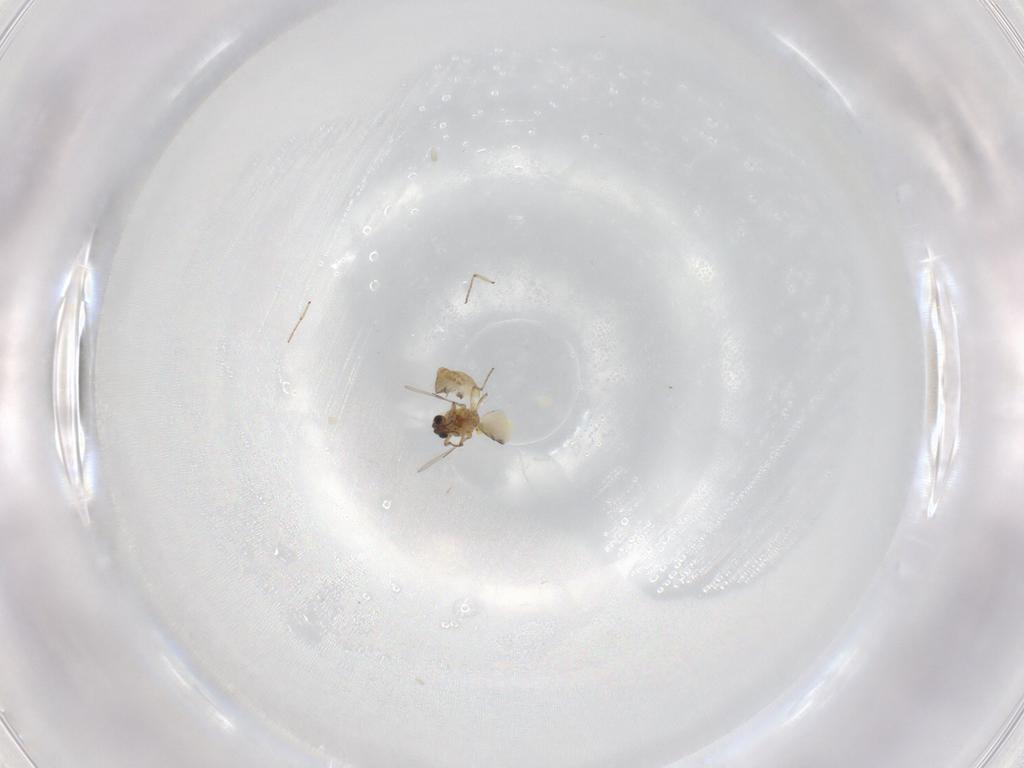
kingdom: Animalia
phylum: Arthropoda
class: Insecta
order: Diptera
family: Ceratopogonidae
